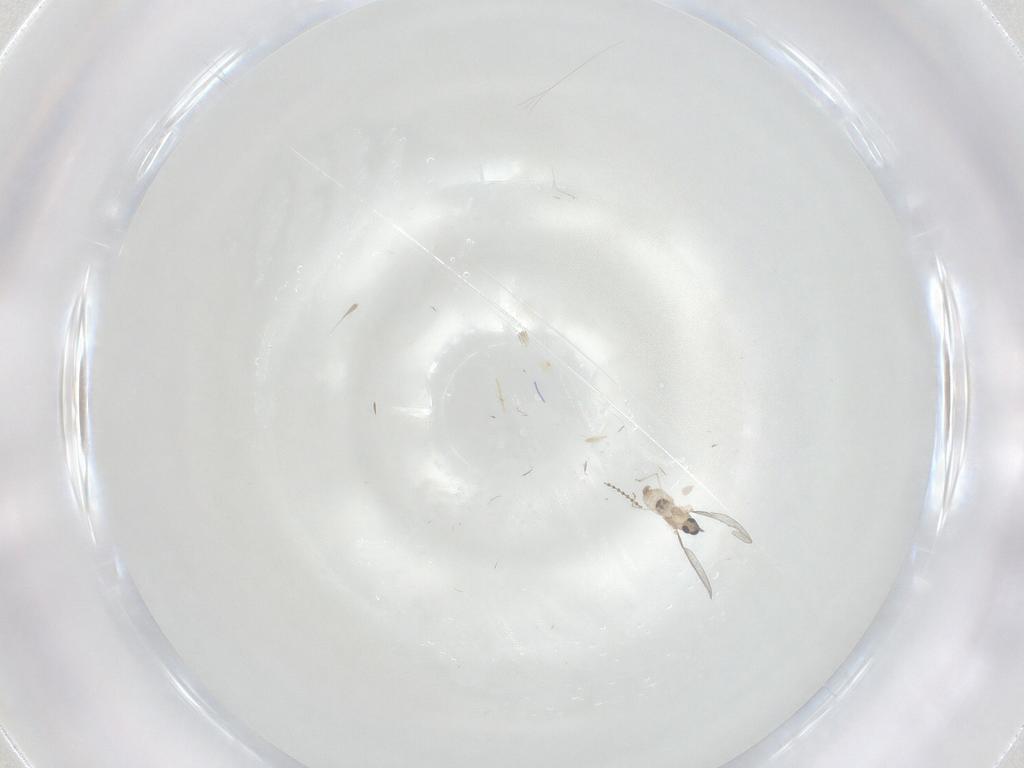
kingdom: Animalia
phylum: Arthropoda
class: Insecta
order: Diptera
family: Cecidomyiidae
